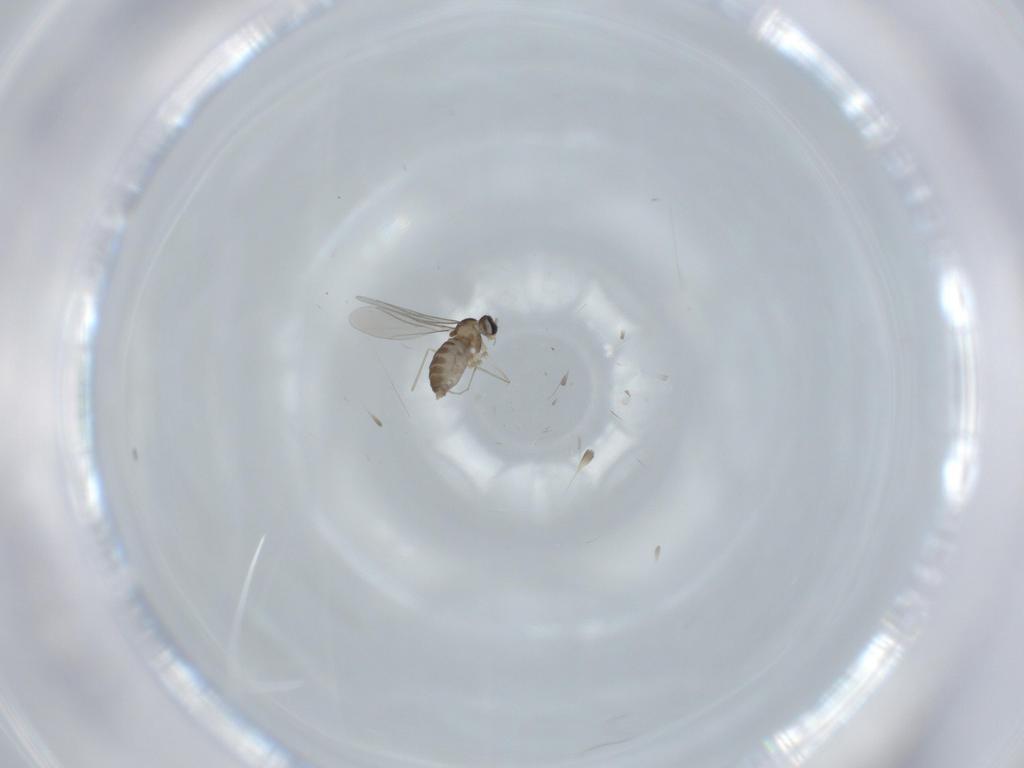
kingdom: Animalia
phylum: Arthropoda
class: Insecta
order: Diptera
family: Cecidomyiidae
